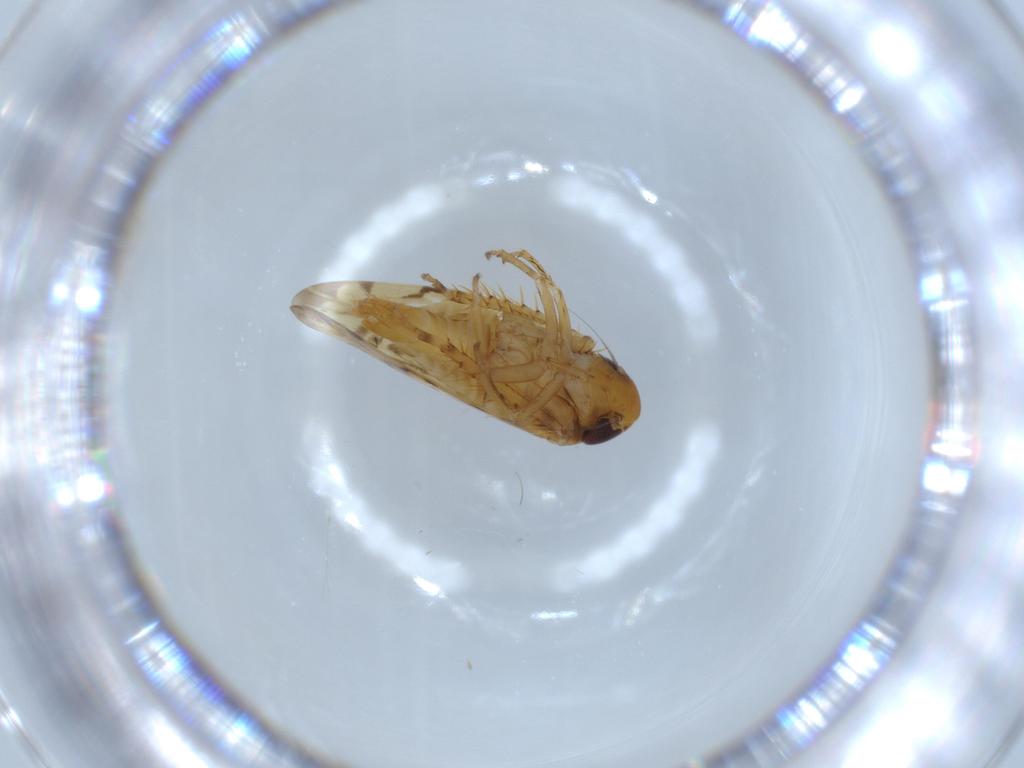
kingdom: Animalia
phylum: Arthropoda
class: Insecta
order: Hemiptera
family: Cicadellidae
